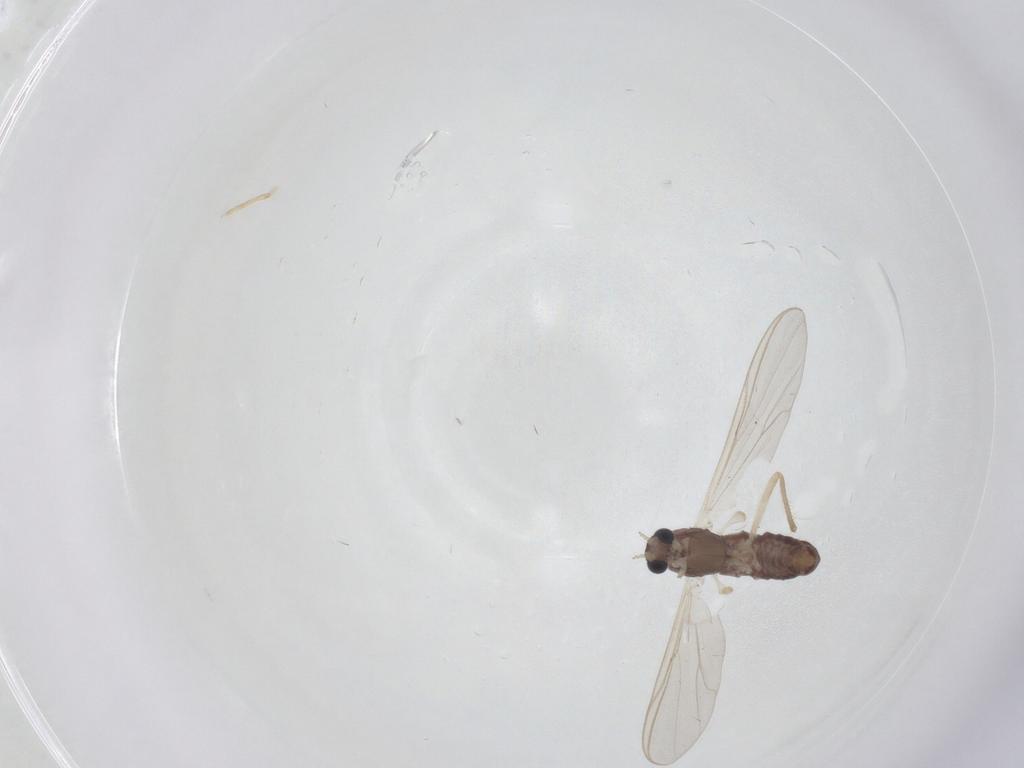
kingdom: Animalia
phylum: Arthropoda
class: Insecta
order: Diptera
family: Chironomidae
